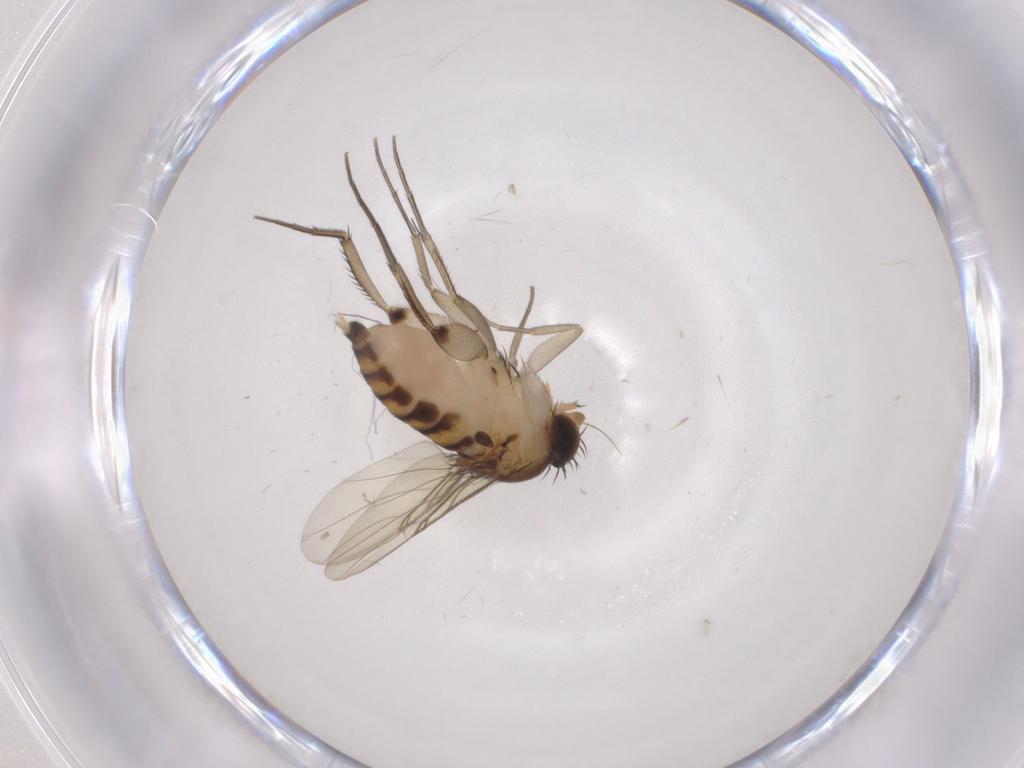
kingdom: Animalia
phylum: Arthropoda
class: Insecta
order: Diptera
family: Phoridae
